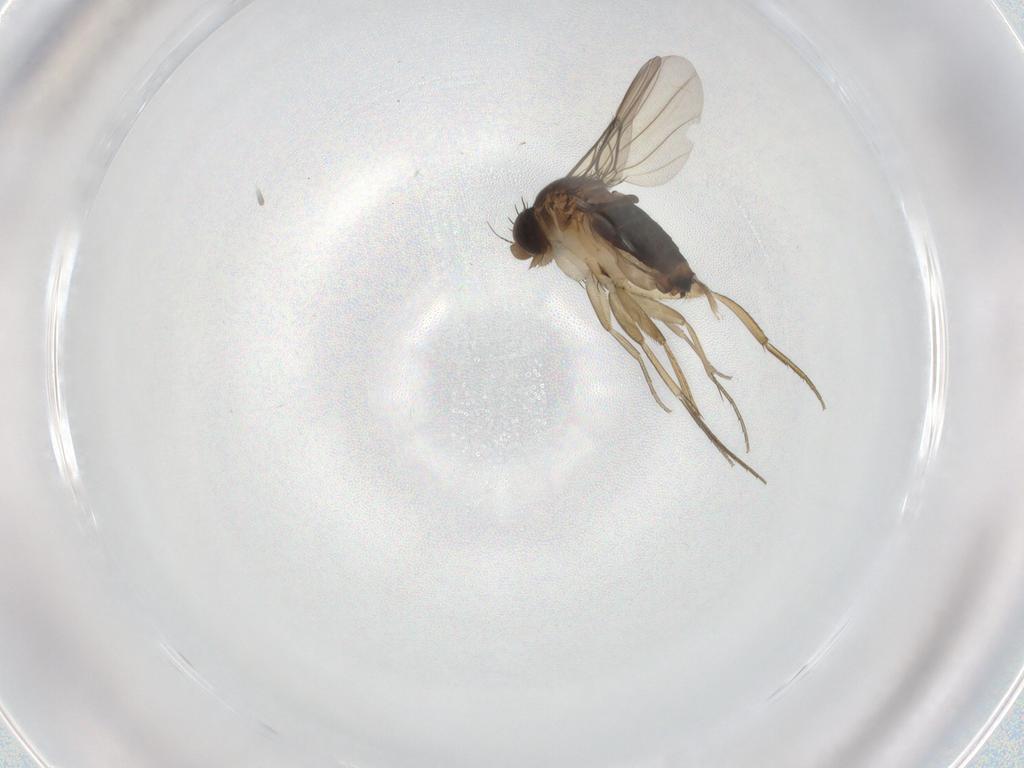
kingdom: Animalia
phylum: Arthropoda
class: Insecta
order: Diptera
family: Phoridae
